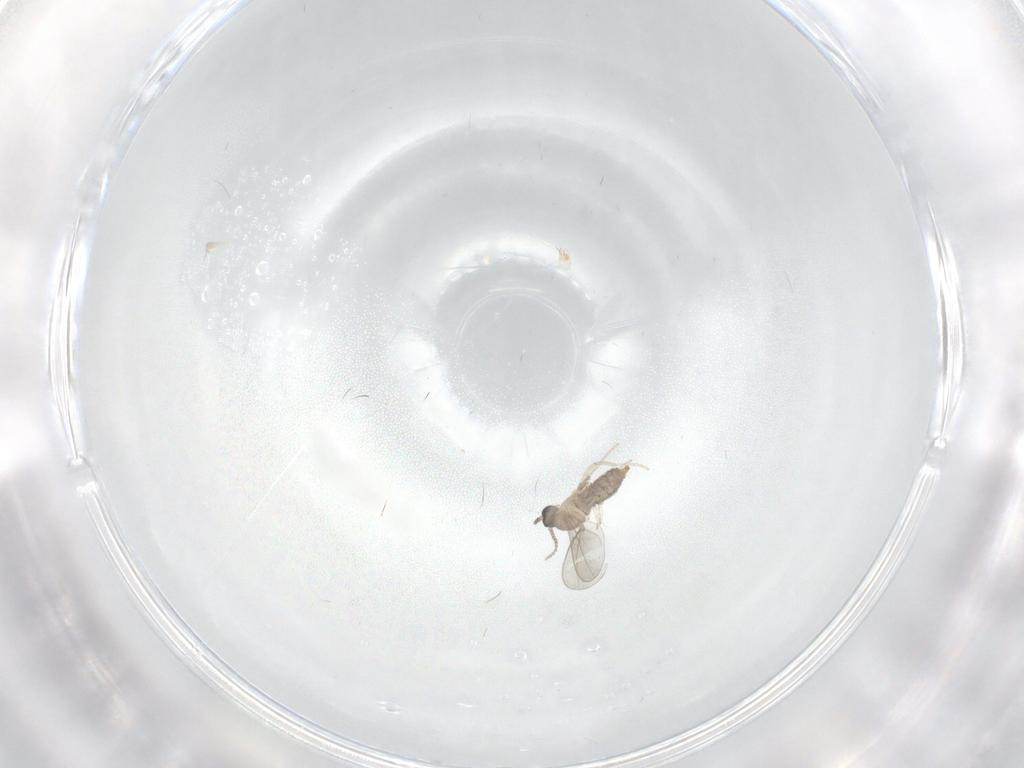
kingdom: Animalia
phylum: Arthropoda
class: Insecta
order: Diptera
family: Cecidomyiidae
